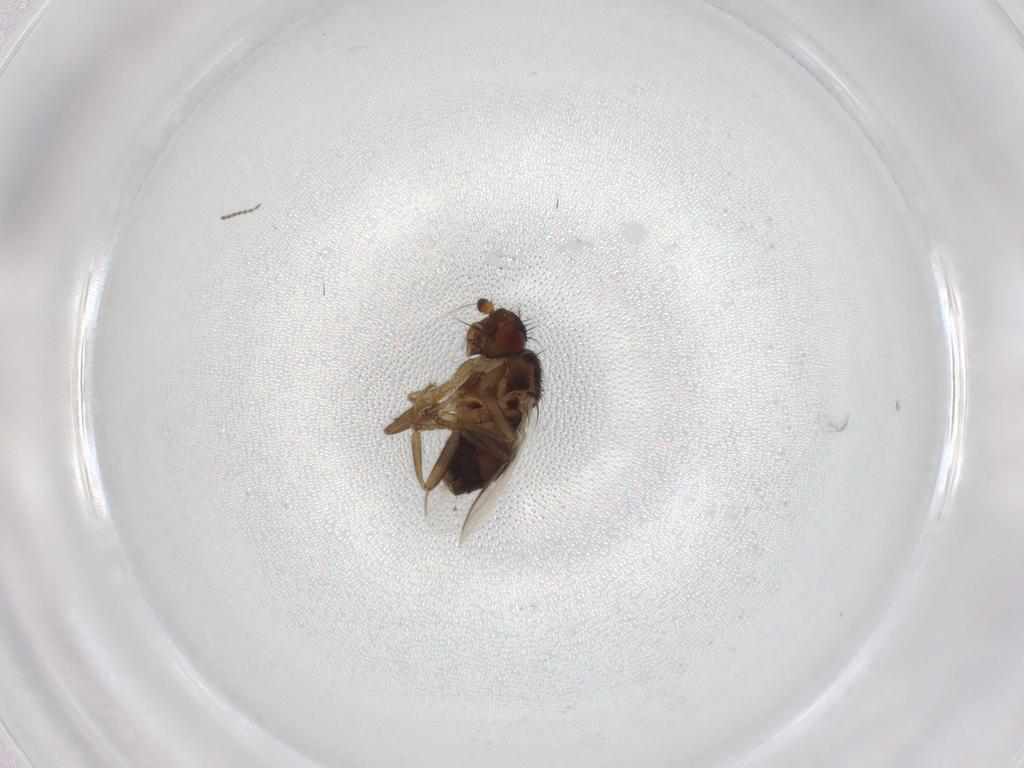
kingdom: Animalia
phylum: Arthropoda
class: Insecta
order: Diptera
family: Sphaeroceridae
